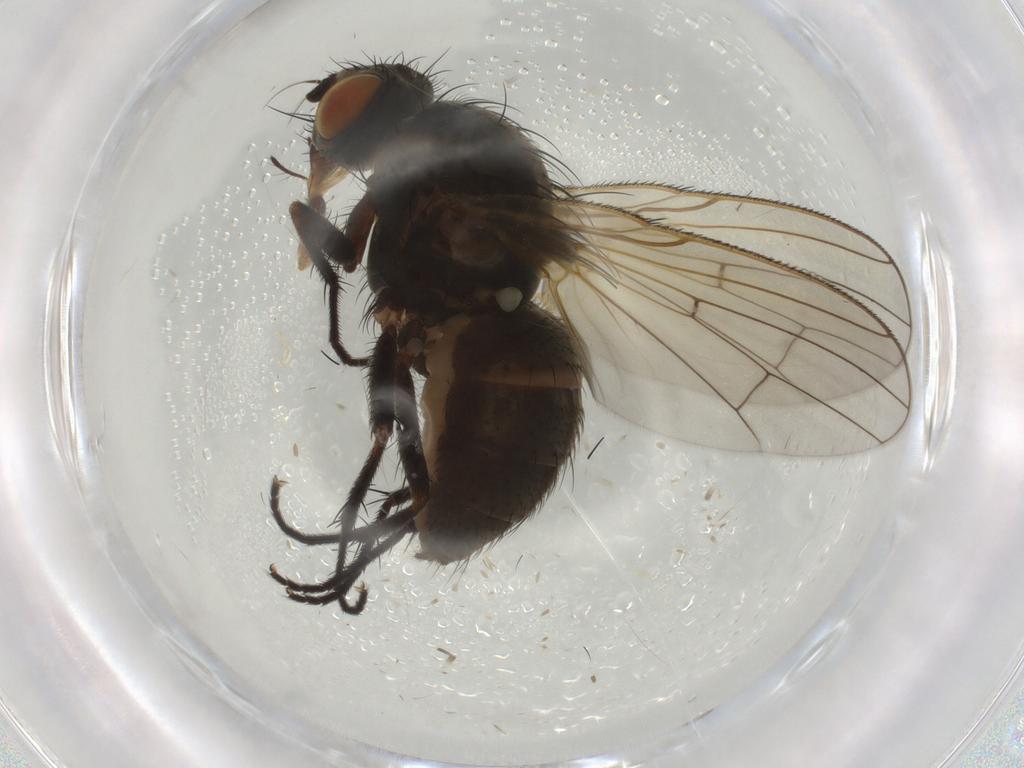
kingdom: Animalia
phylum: Arthropoda
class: Insecta
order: Diptera
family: Anthomyiidae
